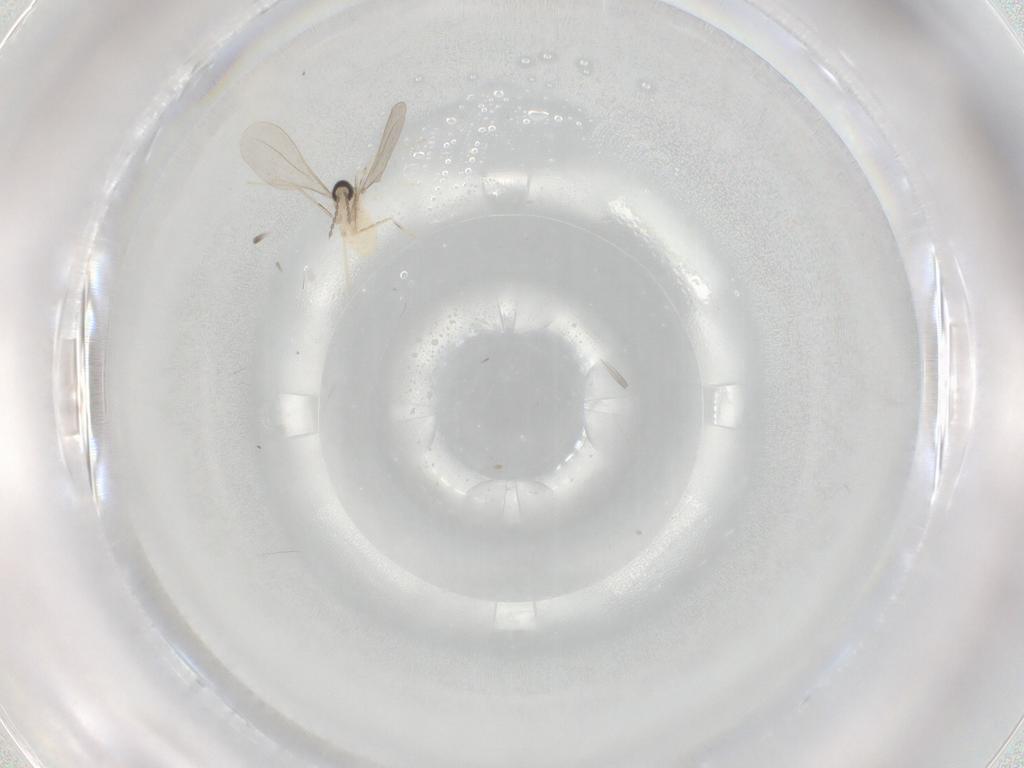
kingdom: Animalia
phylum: Arthropoda
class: Insecta
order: Diptera
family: Cecidomyiidae
